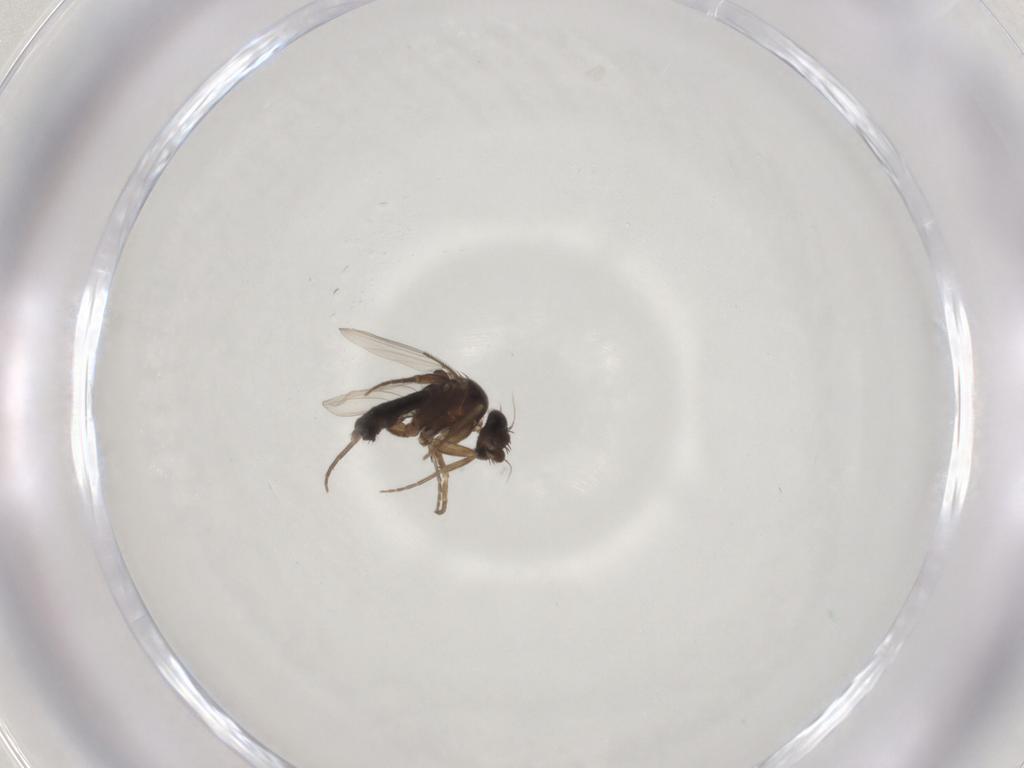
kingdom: Animalia
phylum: Arthropoda
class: Insecta
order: Diptera
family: Phoridae
